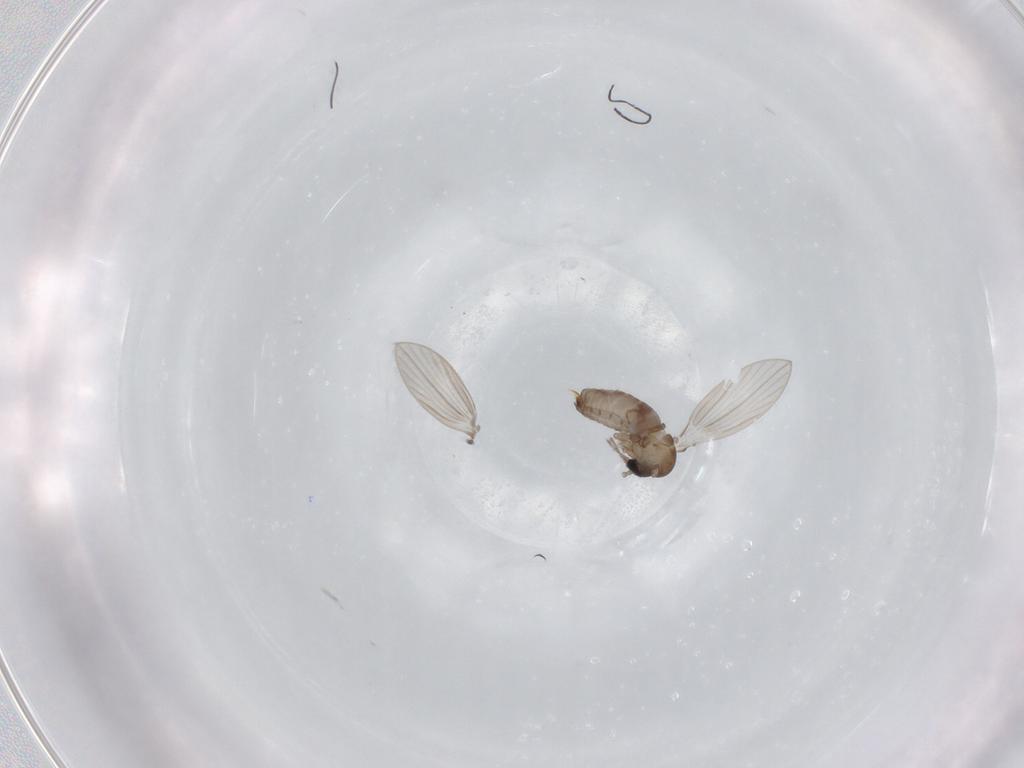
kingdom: Animalia
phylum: Arthropoda
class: Insecta
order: Diptera
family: Psychodidae
